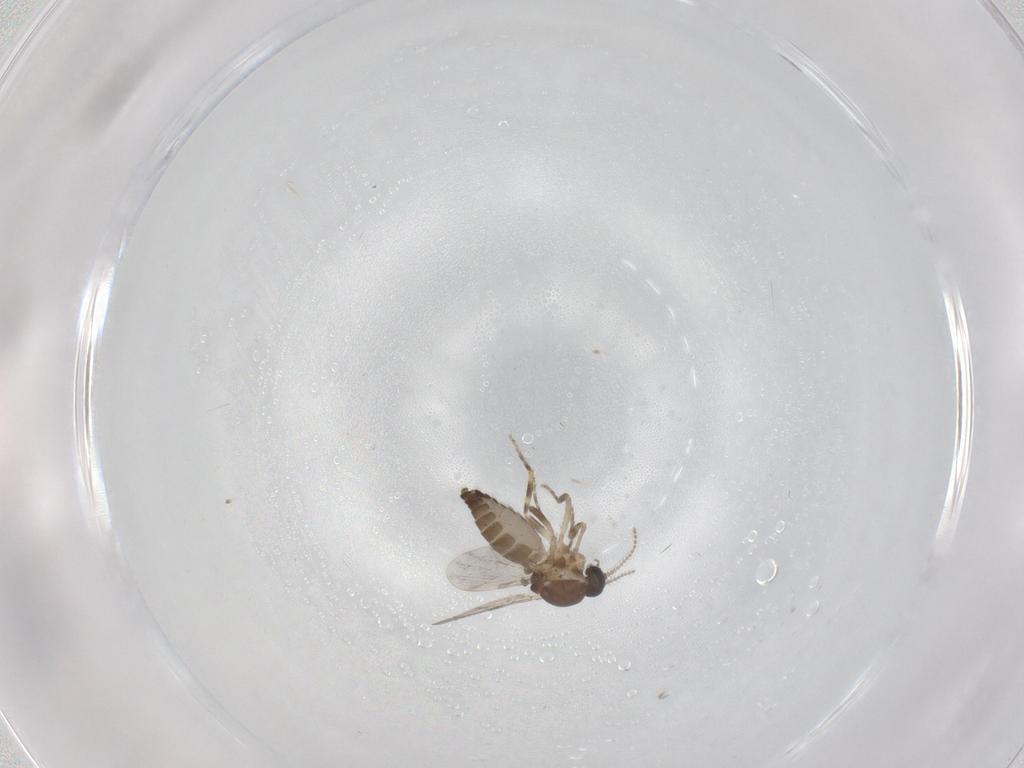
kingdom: Animalia
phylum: Arthropoda
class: Insecta
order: Diptera
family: Ceratopogonidae
